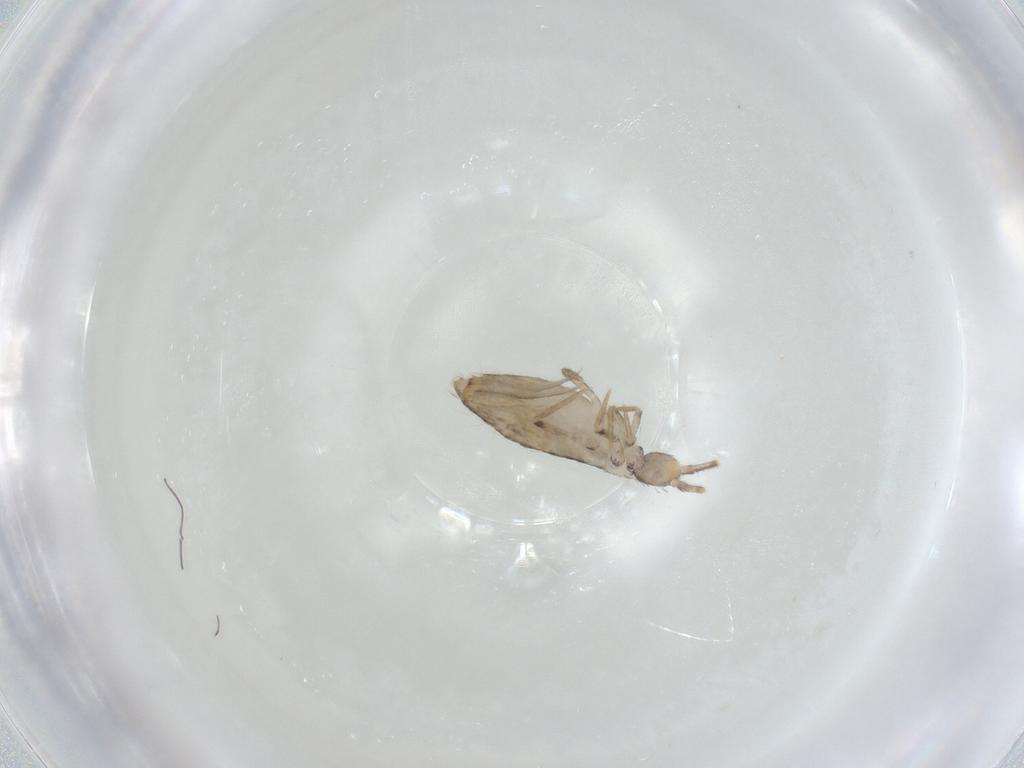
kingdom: Animalia
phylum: Arthropoda
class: Collembola
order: Entomobryomorpha
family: Entomobryidae
